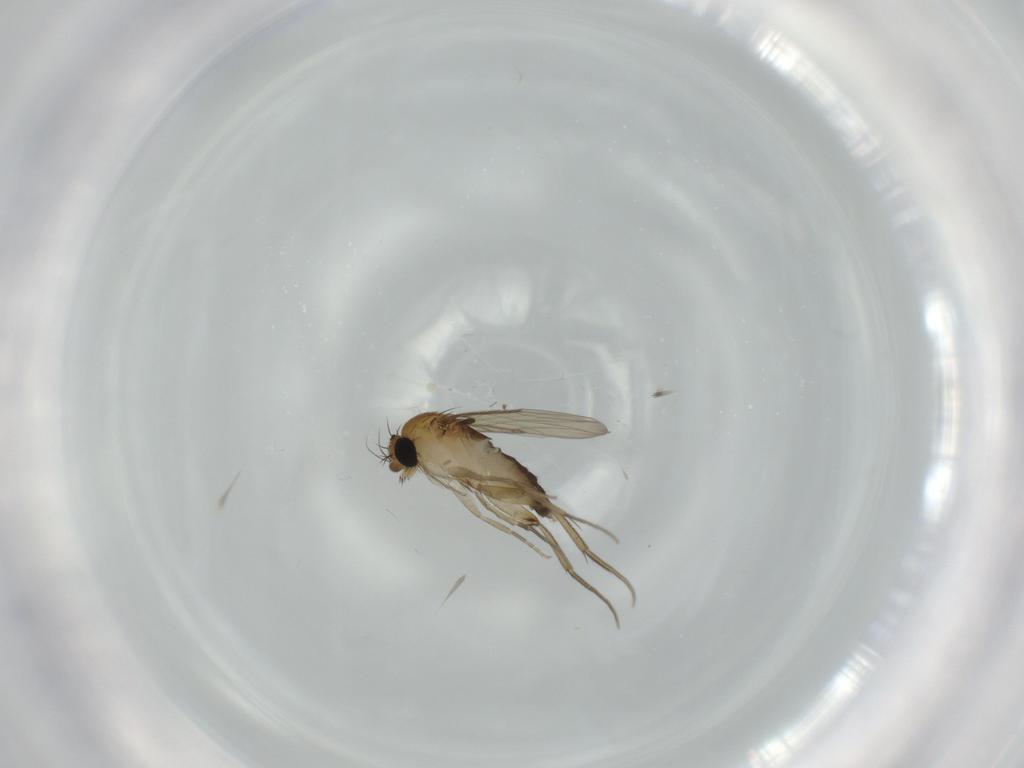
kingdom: Animalia
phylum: Arthropoda
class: Insecta
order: Diptera
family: Phoridae
